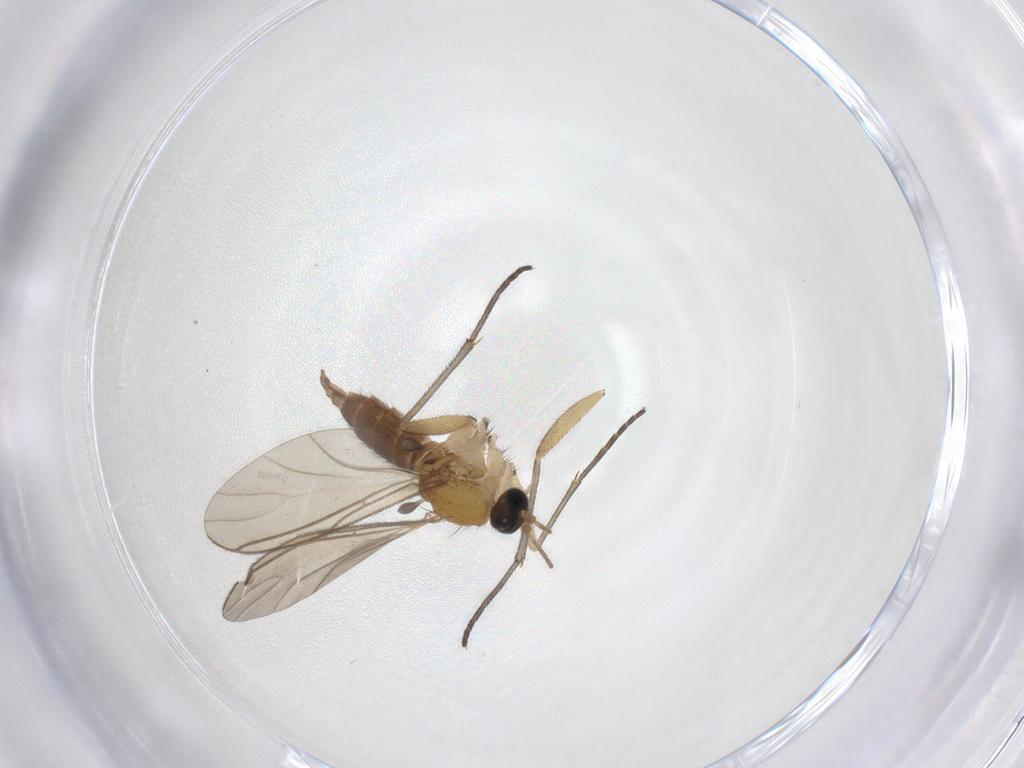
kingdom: Animalia
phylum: Arthropoda
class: Insecta
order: Diptera
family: Sciaridae
